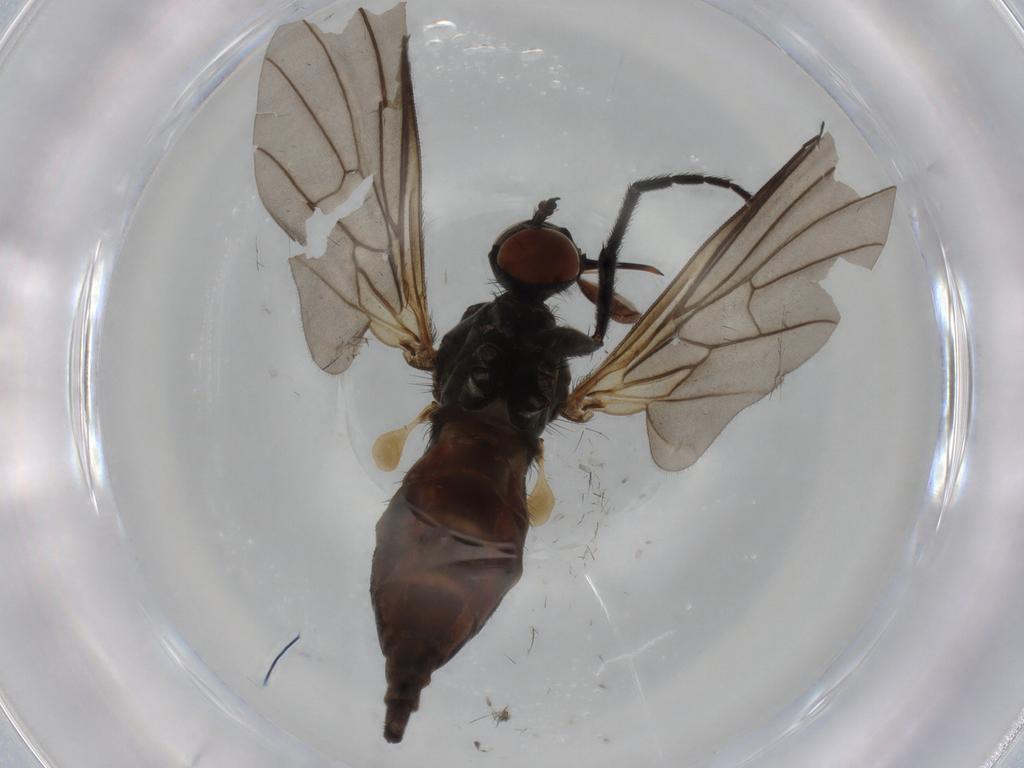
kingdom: Animalia
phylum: Arthropoda
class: Insecta
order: Diptera
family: Empididae
